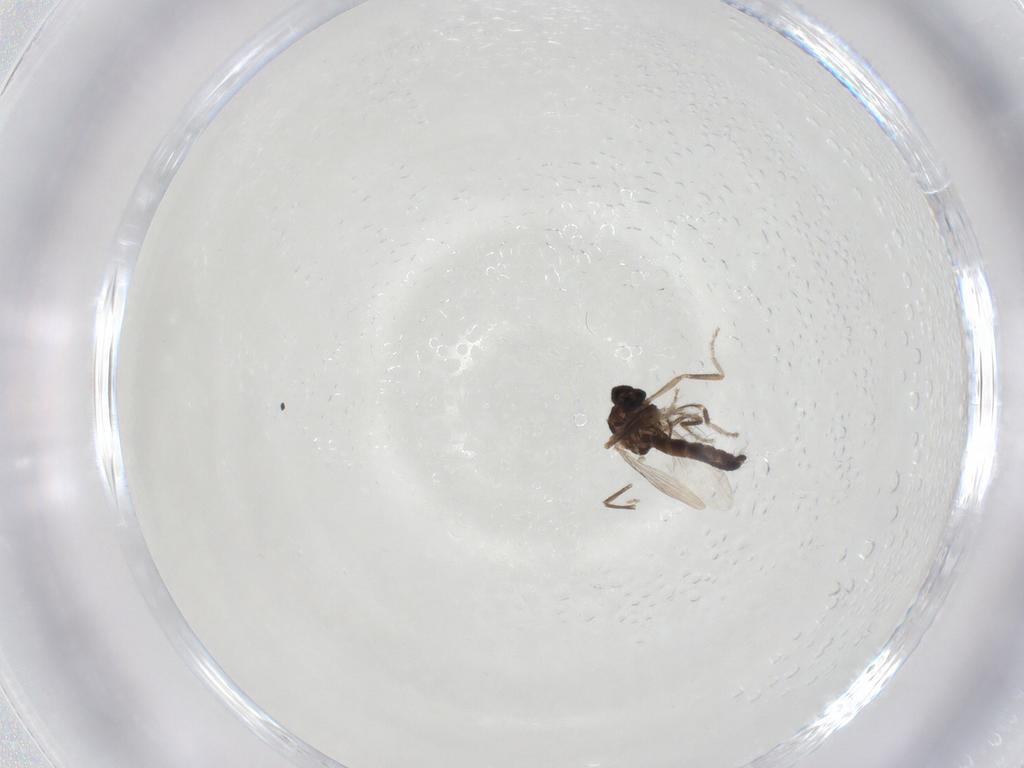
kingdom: Animalia
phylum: Arthropoda
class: Insecta
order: Diptera
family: Ceratopogonidae
